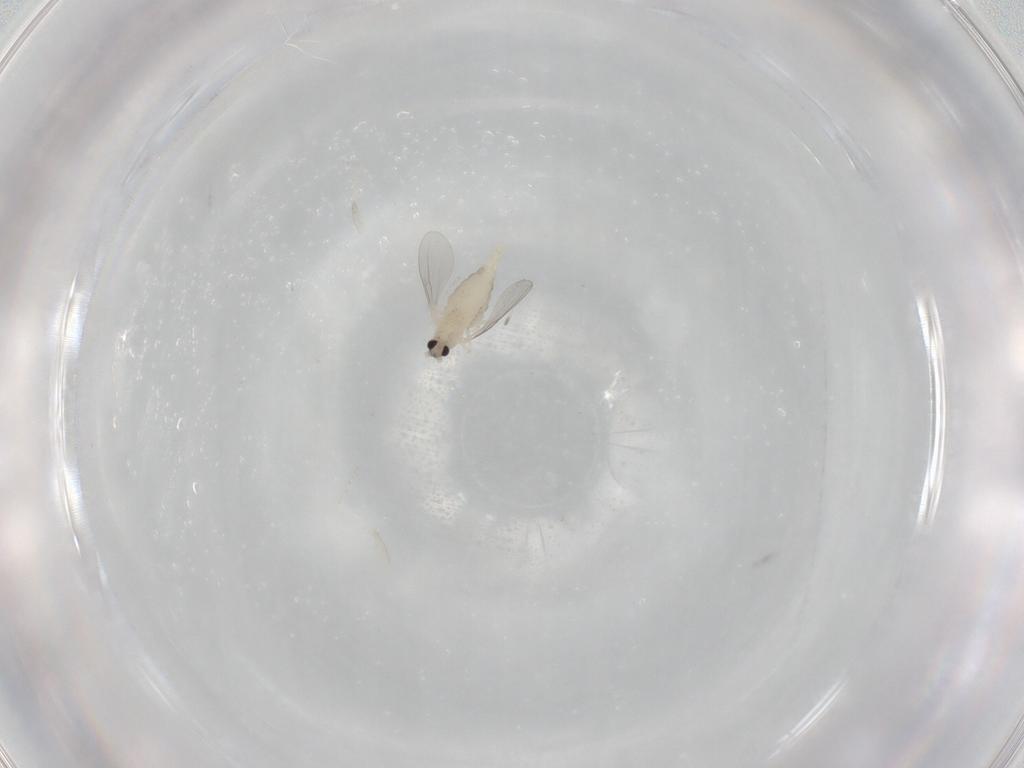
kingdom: Animalia
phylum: Arthropoda
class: Insecta
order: Diptera
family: Cecidomyiidae
